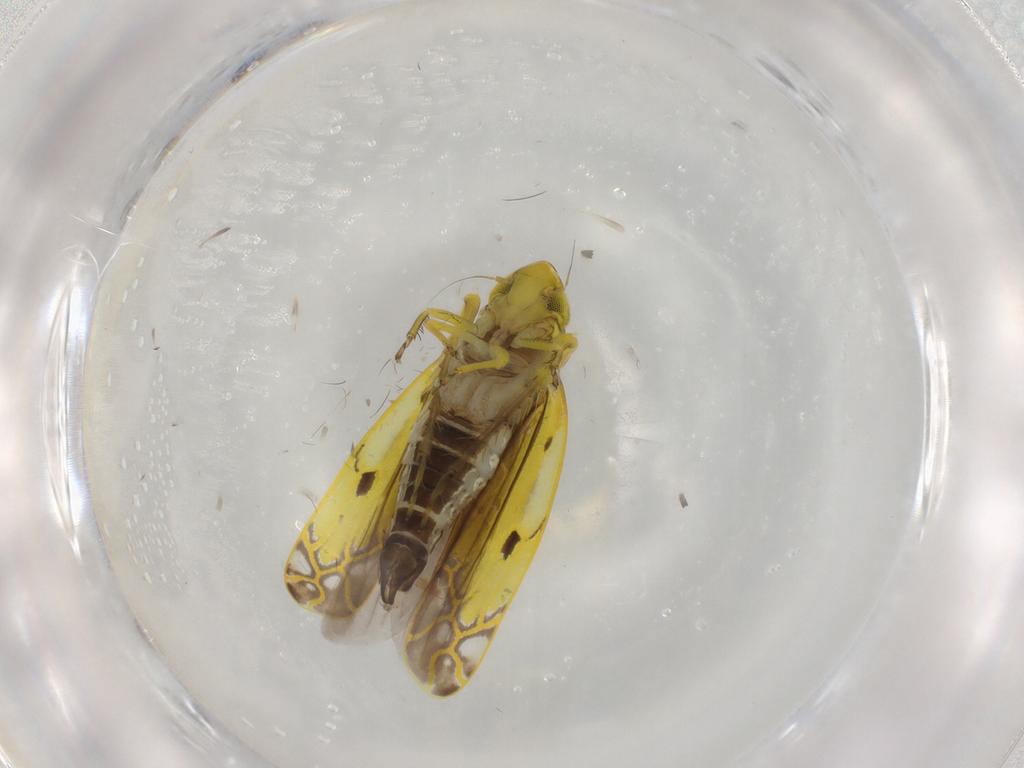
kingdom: Animalia
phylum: Arthropoda
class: Insecta
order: Hemiptera
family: Cicadellidae
